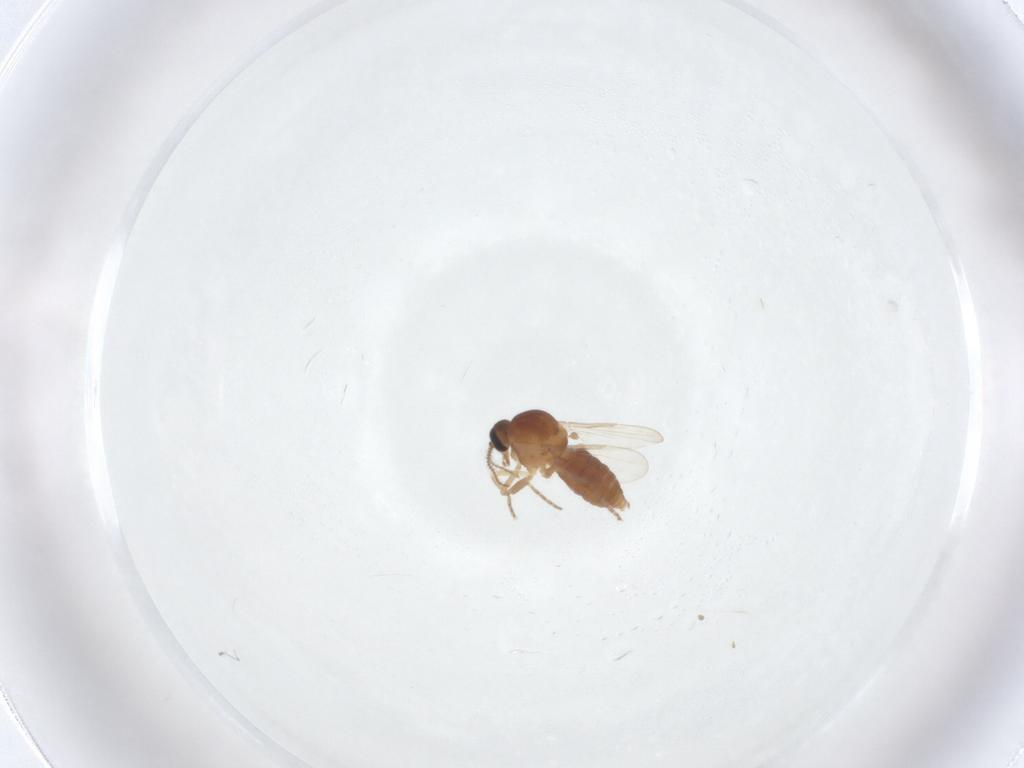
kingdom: Animalia
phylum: Arthropoda
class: Insecta
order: Diptera
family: Ceratopogonidae
